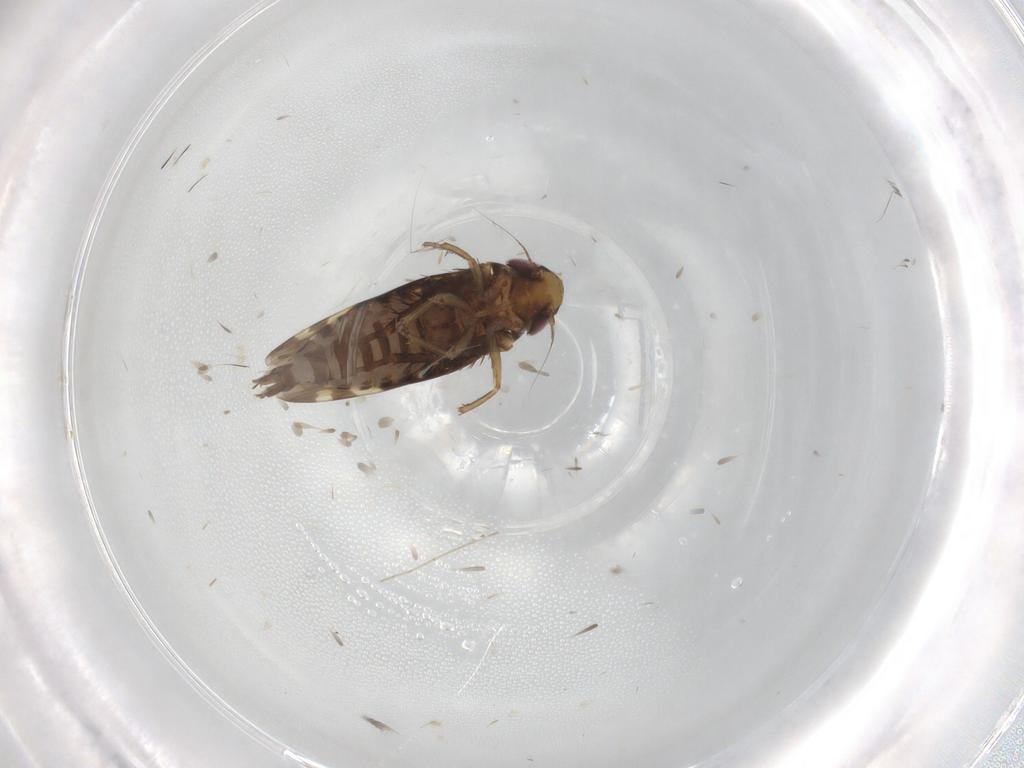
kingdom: Animalia
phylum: Arthropoda
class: Insecta
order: Hemiptera
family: Cicadellidae
